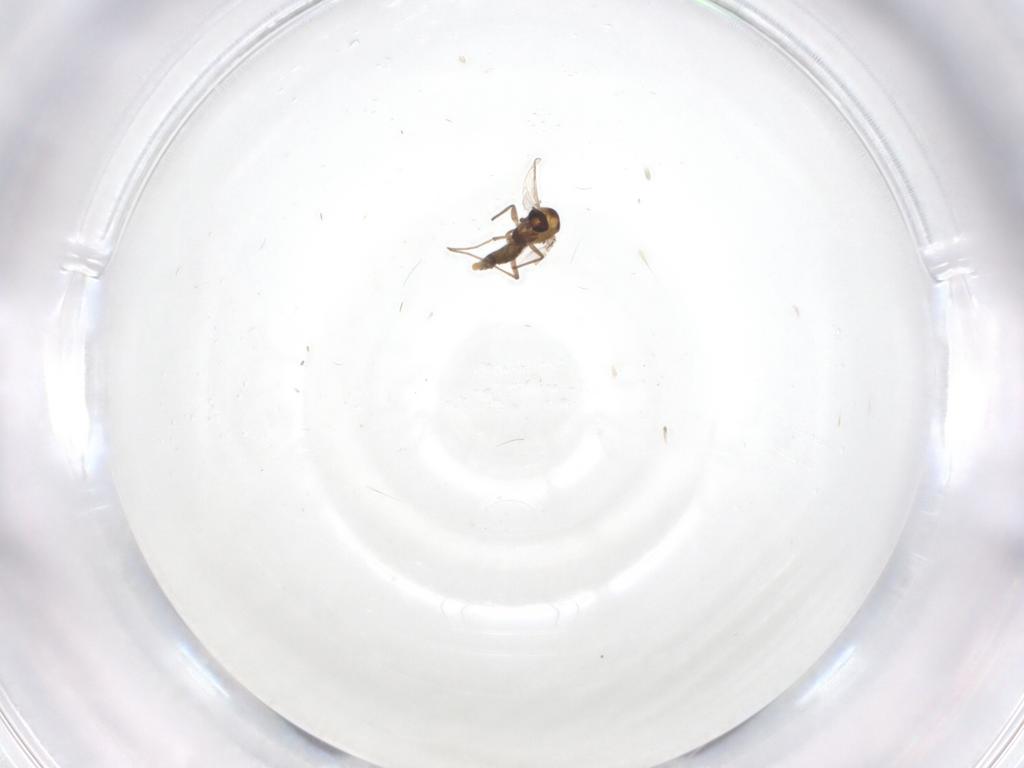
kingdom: Animalia
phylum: Arthropoda
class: Insecta
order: Diptera
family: Chironomidae
